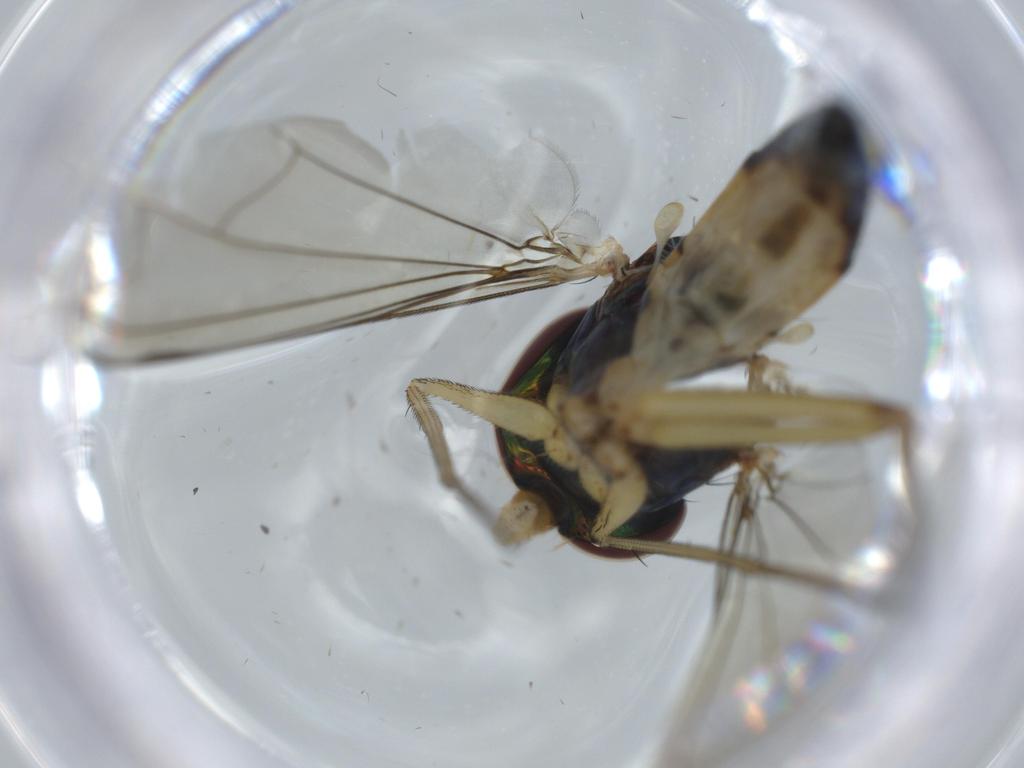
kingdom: Animalia
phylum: Arthropoda
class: Insecta
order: Diptera
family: Dolichopodidae
